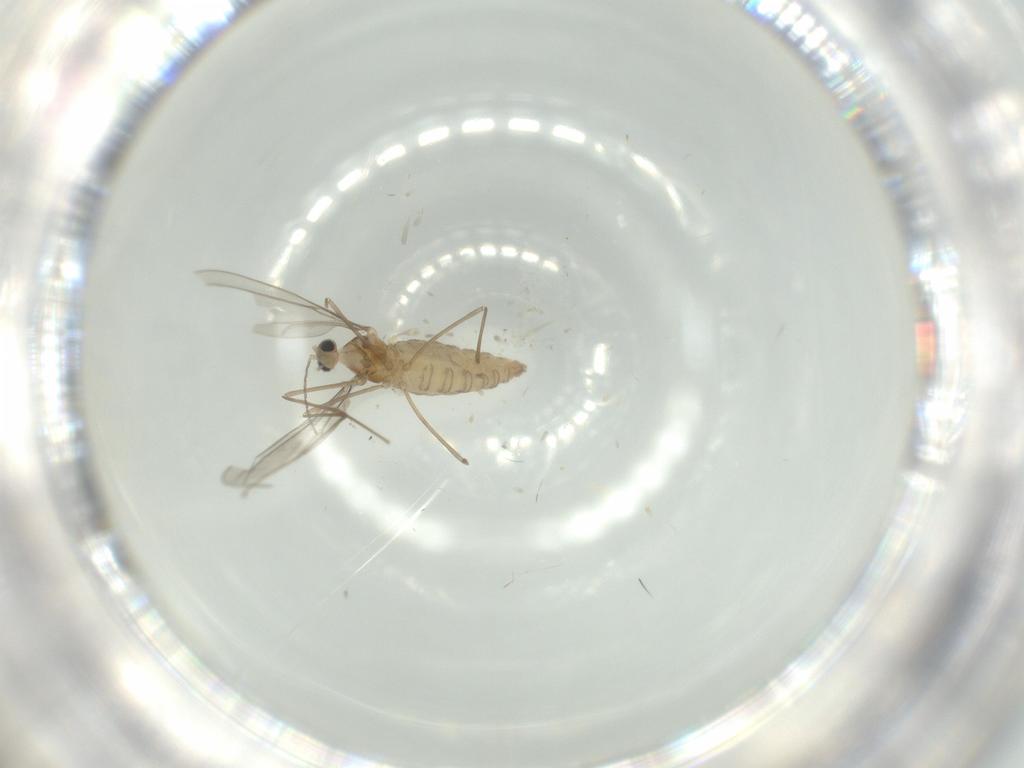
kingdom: Animalia
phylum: Arthropoda
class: Insecta
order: Diptera
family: Cecidomyiidae
